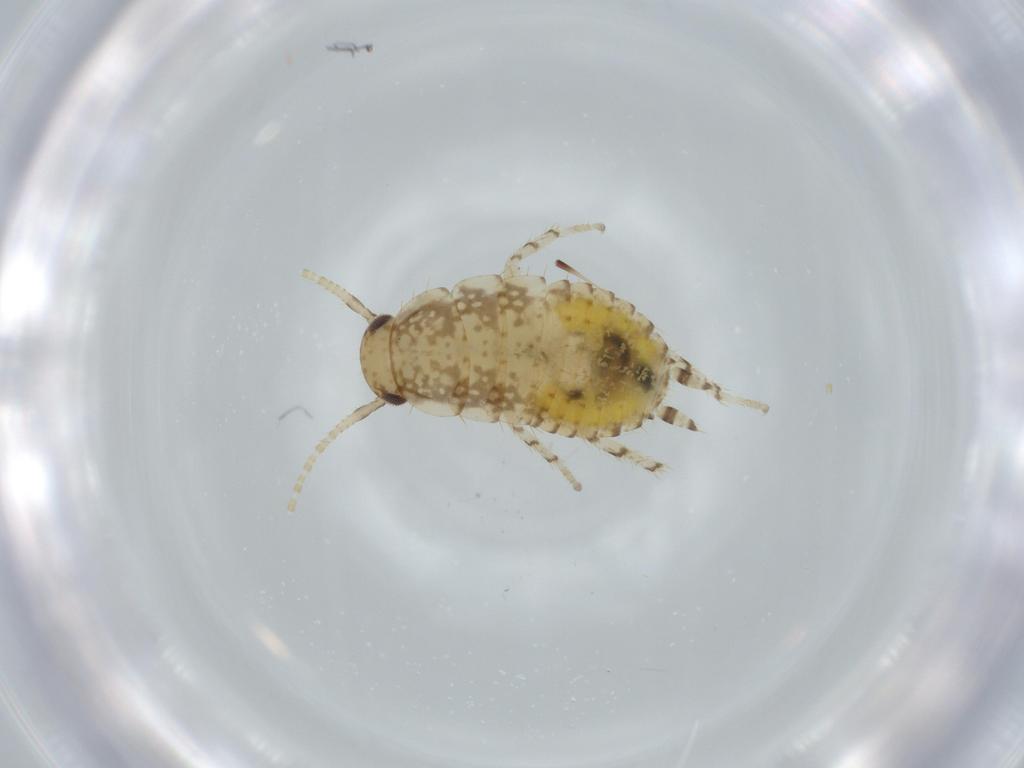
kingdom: Animalia
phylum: Arthropoda
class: Insecta
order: Blattodea
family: Ectobiidae
